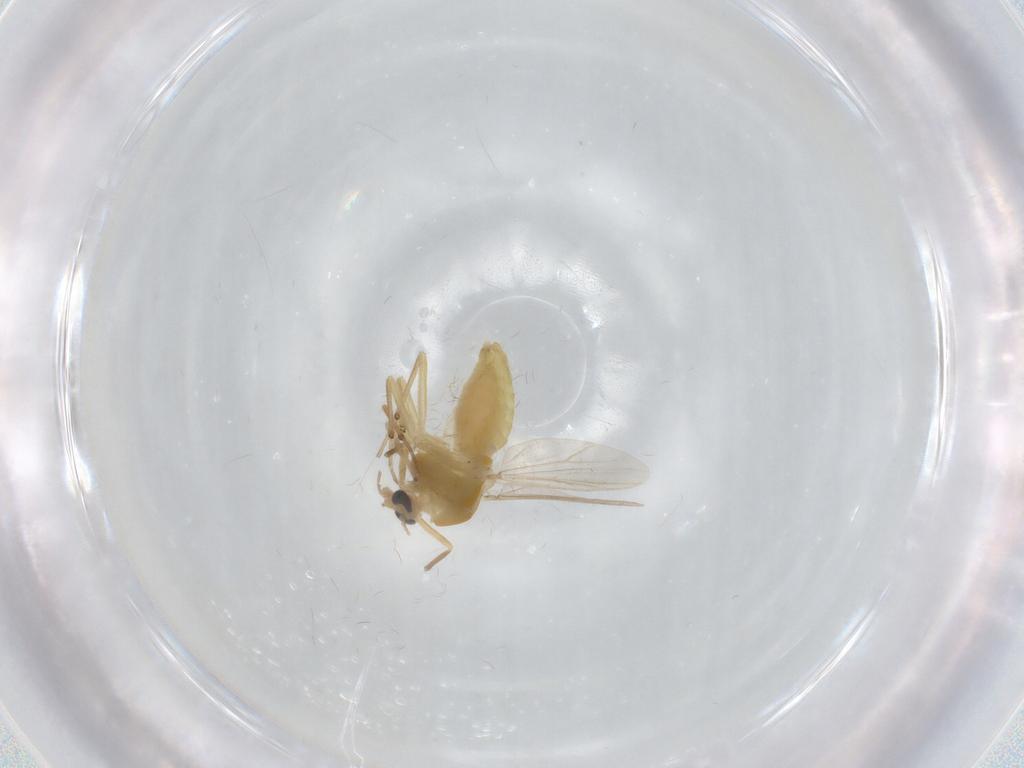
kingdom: Animalia
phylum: Arthropoda
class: Insecta
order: Diptera
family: Chironomidae
